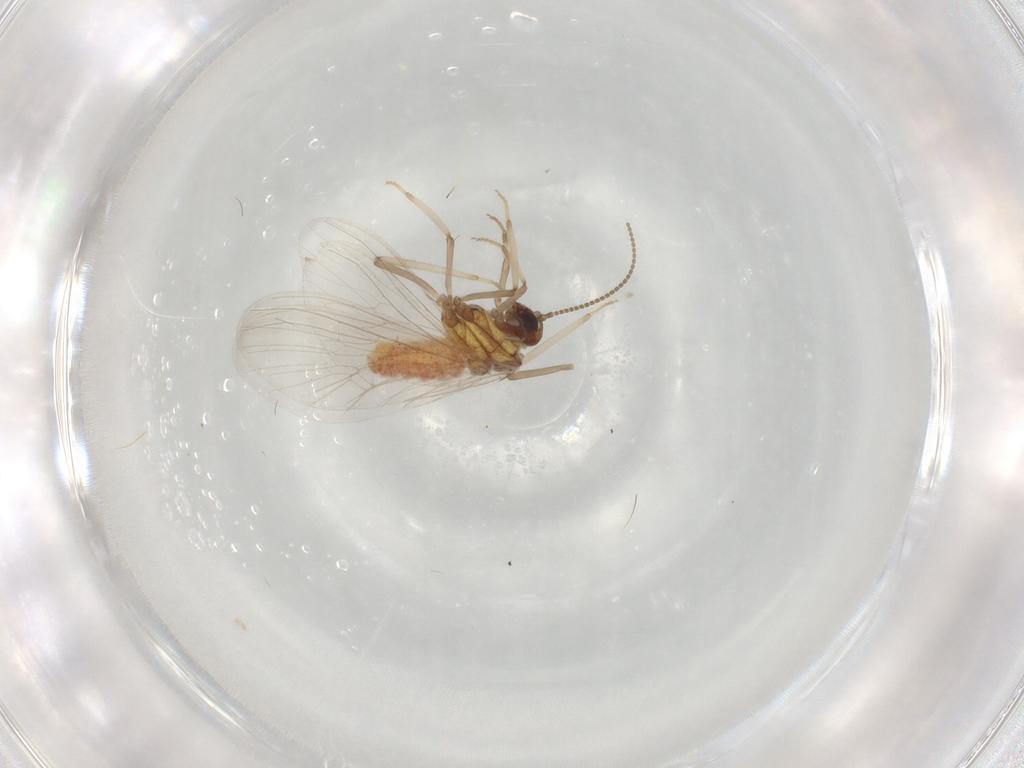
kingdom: Animalia
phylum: Arthropoda
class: Insecta
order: Neuroptera
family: Coniopterygidae
